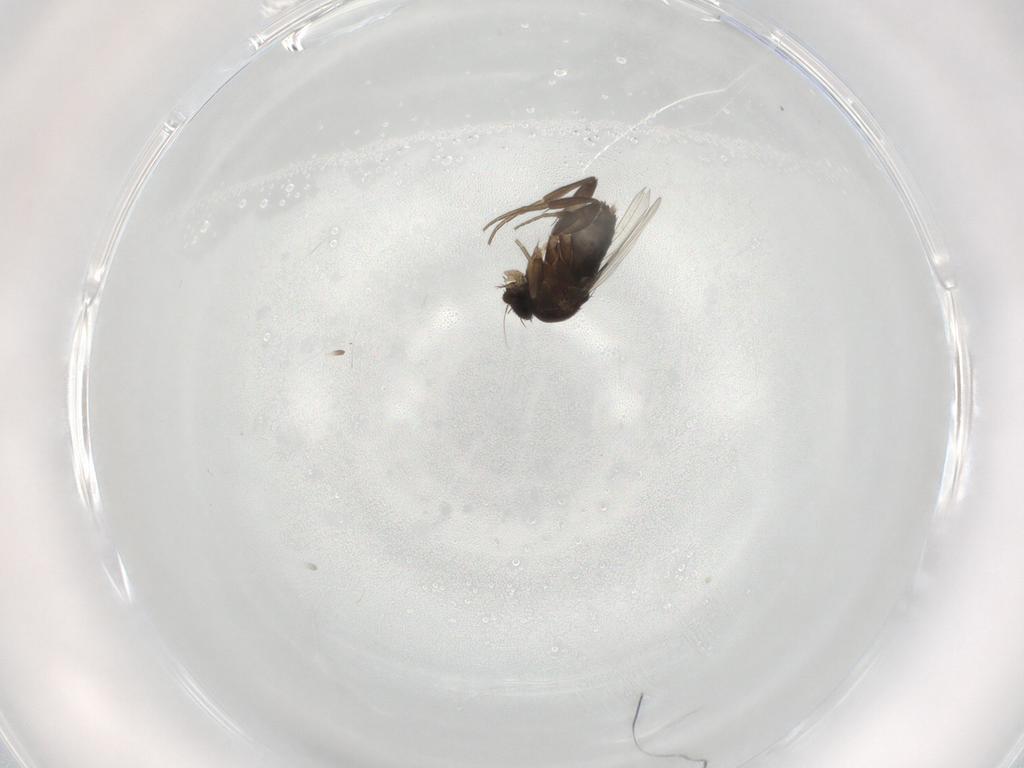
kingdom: Animalia
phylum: Arthropoda
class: Insecta
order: Diptera
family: Phoridae
